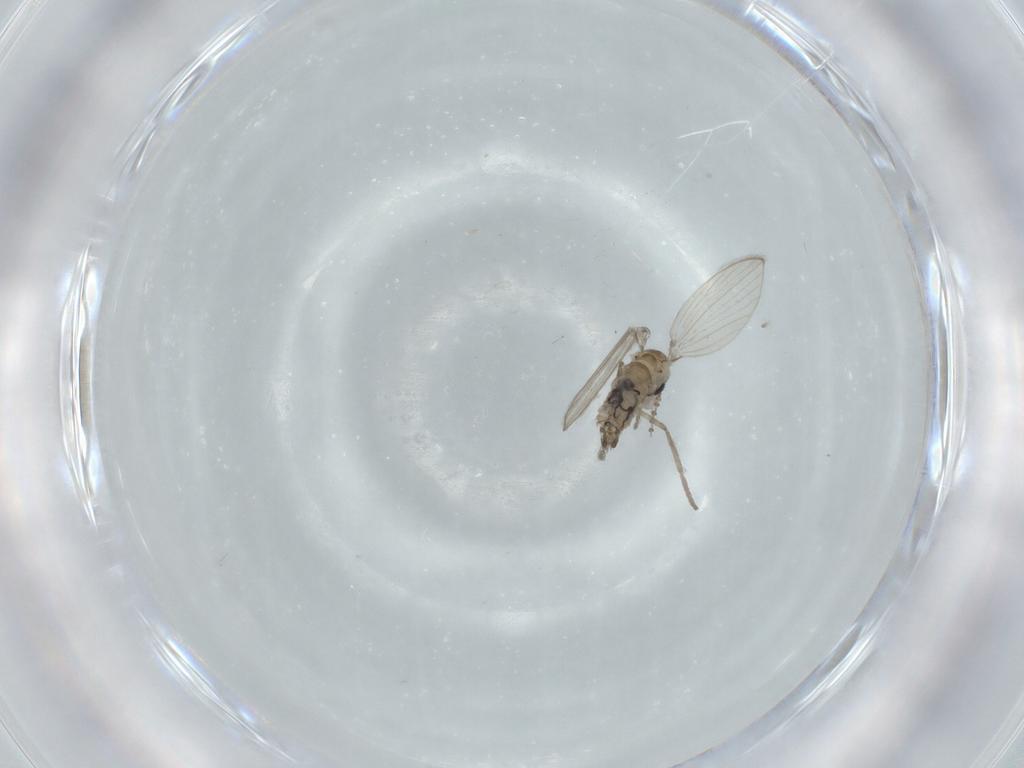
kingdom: Animalia
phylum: Arthropoda
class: Insecta
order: Diptera
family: Psychodidae
